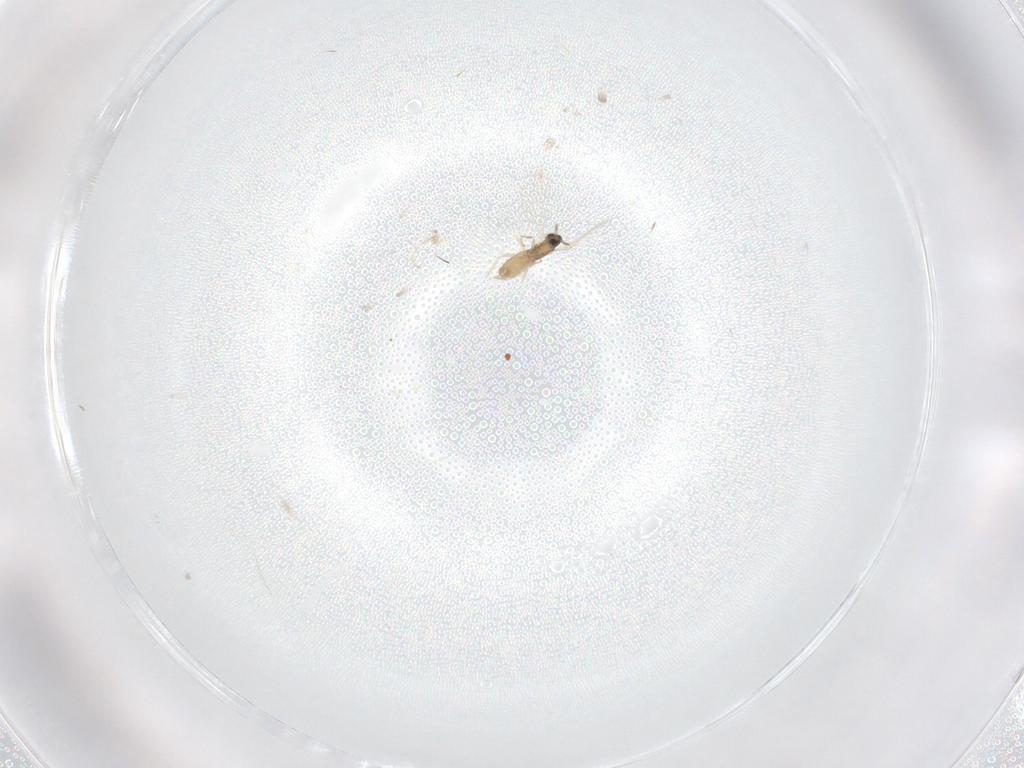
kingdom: Animalia
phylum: Arthropoda
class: Insecta
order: Diptera
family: Cecidomyiidae
